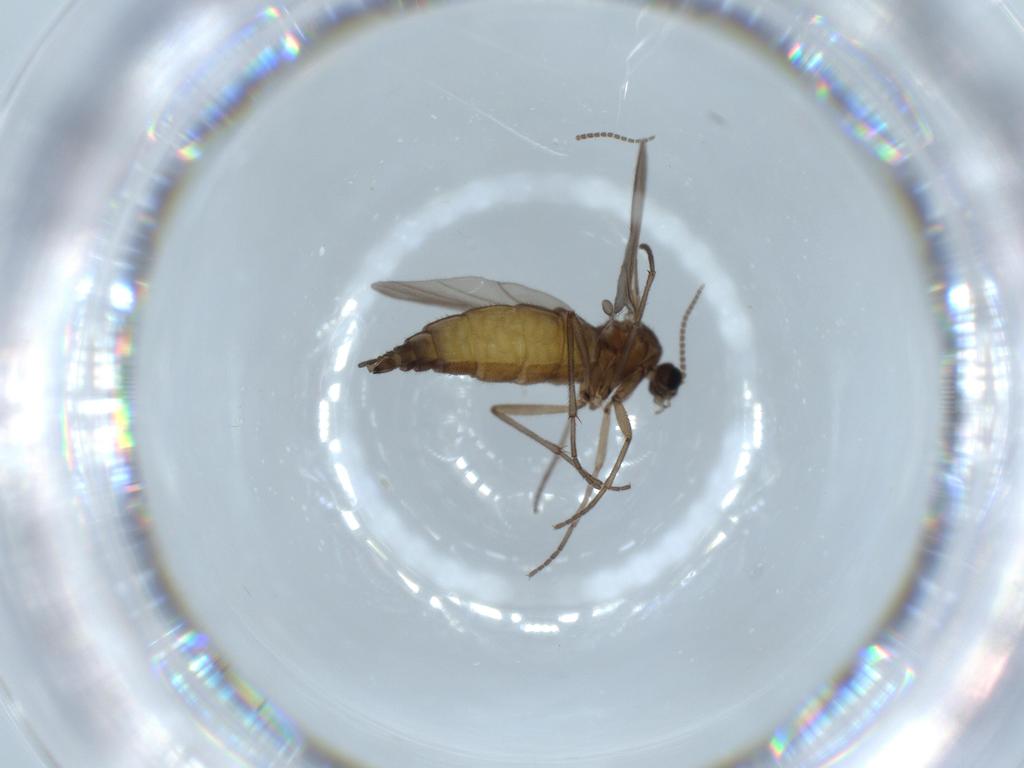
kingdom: Animalia
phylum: Arthropoda
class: Insecta
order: Diptera
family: Sciaridae
